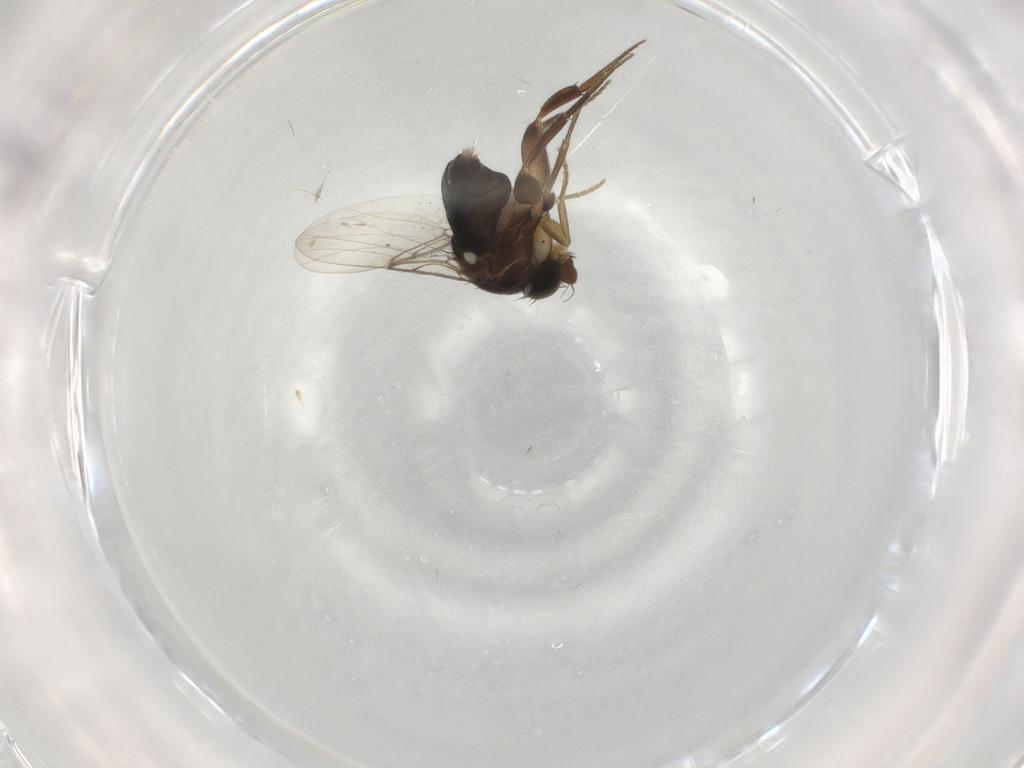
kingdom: Animalia
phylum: Arthropoda
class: Insecta
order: Diptera
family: Phoridae
